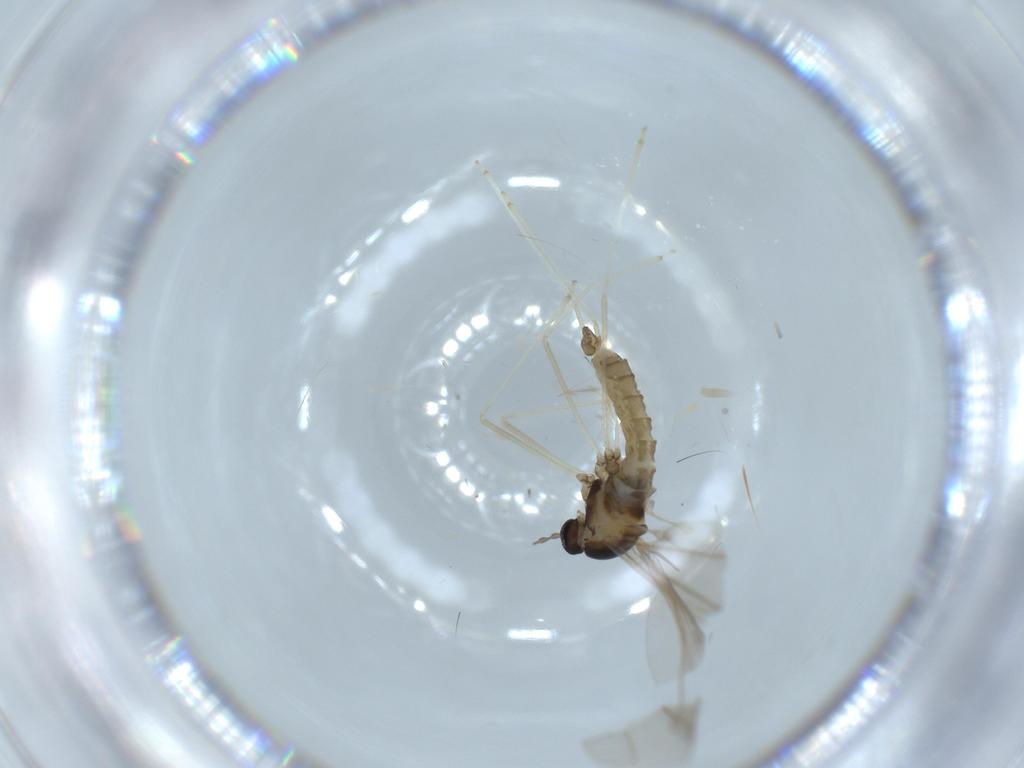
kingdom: Animalia
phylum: Arthropoda
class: Insecta
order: Diptera
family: Cecidomyiidae
